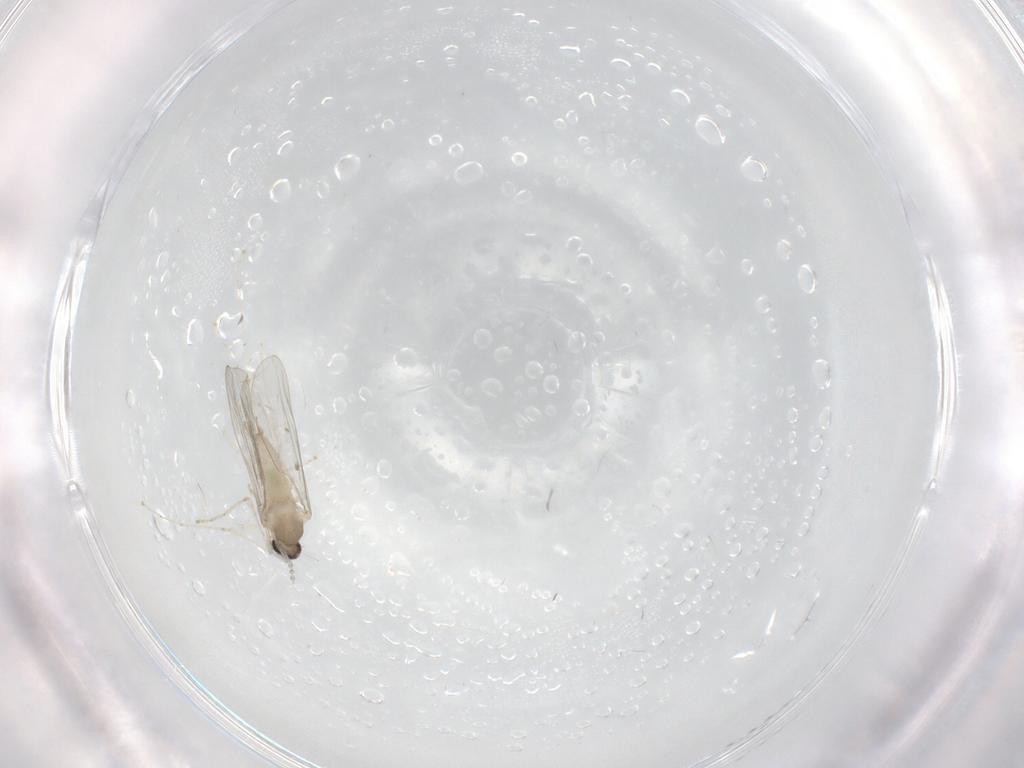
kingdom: Animalia
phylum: Arthropoda
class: Insecta
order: Diptera
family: Cecidomyiidae
